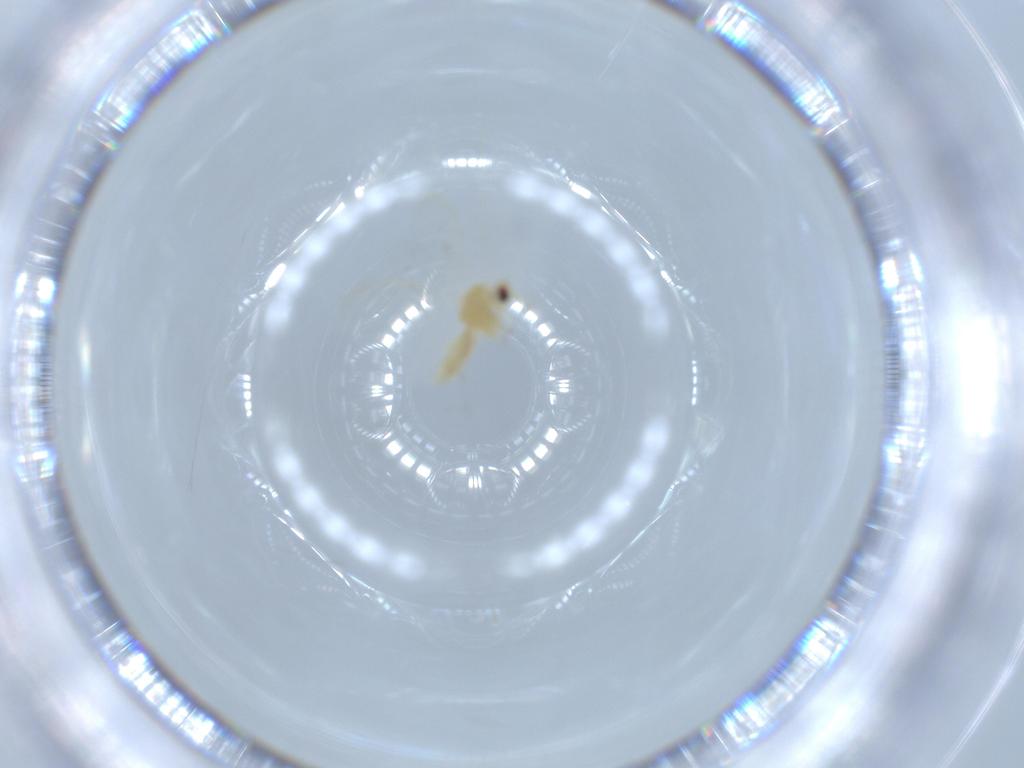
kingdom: Animalia
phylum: Arthropoda
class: Insecta
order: Hemiptera
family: Aleyrodidae
